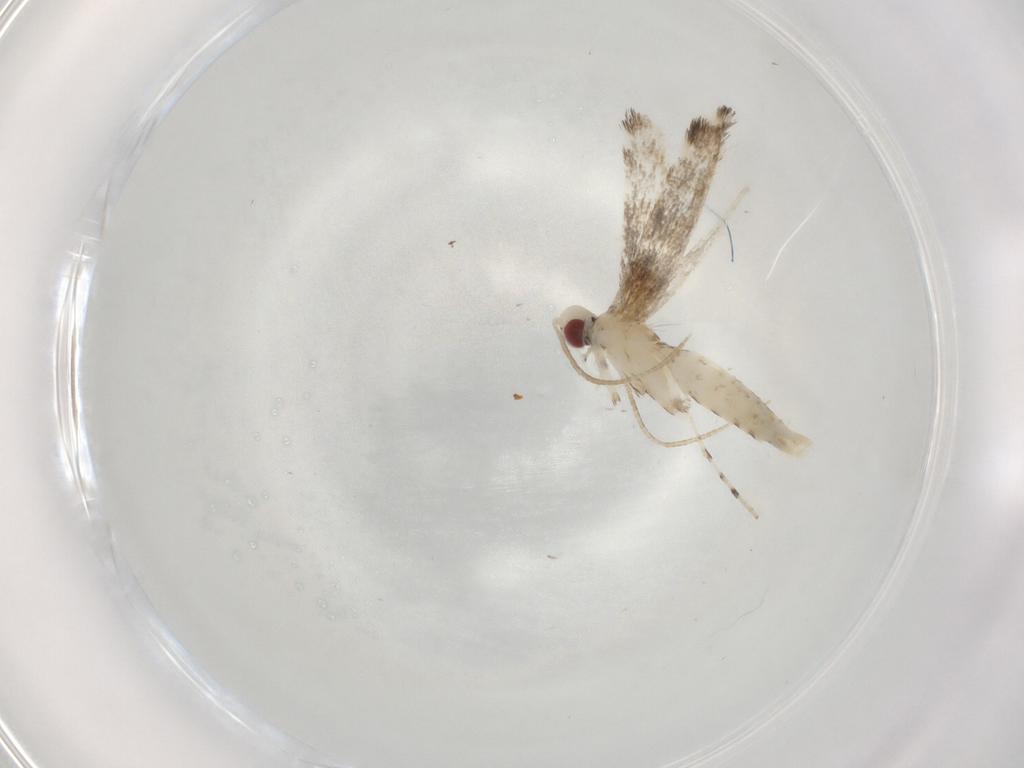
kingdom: Animalia
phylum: Arthropoda
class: Insecta
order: Lepidoptera
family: Gracillariidae
